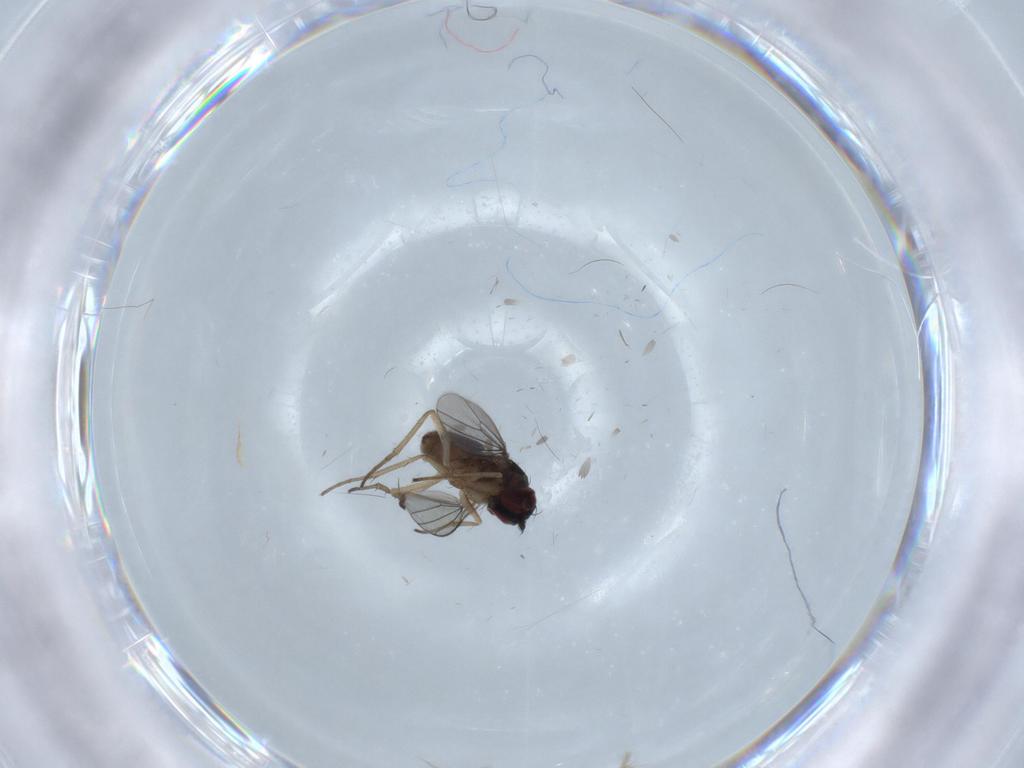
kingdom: Animalia
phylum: Arthropoda
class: Insecta
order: Diptera
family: Dolichopodidae
